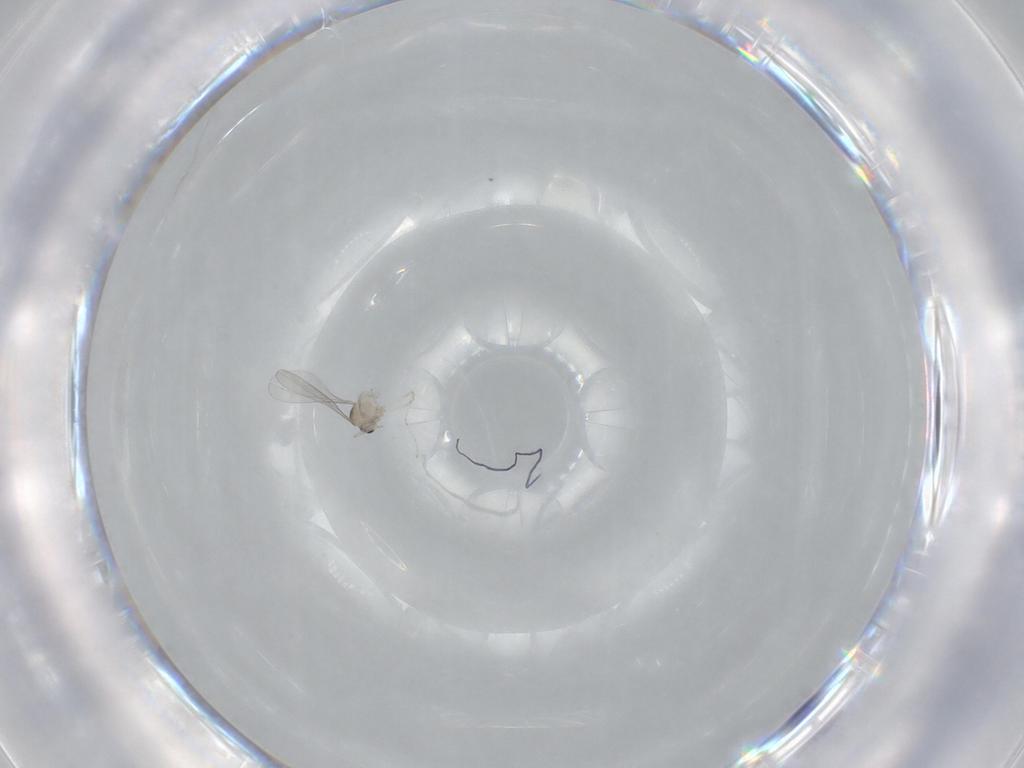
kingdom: Animalia
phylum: Arthropoda
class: Insecta
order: Diptera
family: Cecidomyiidae
